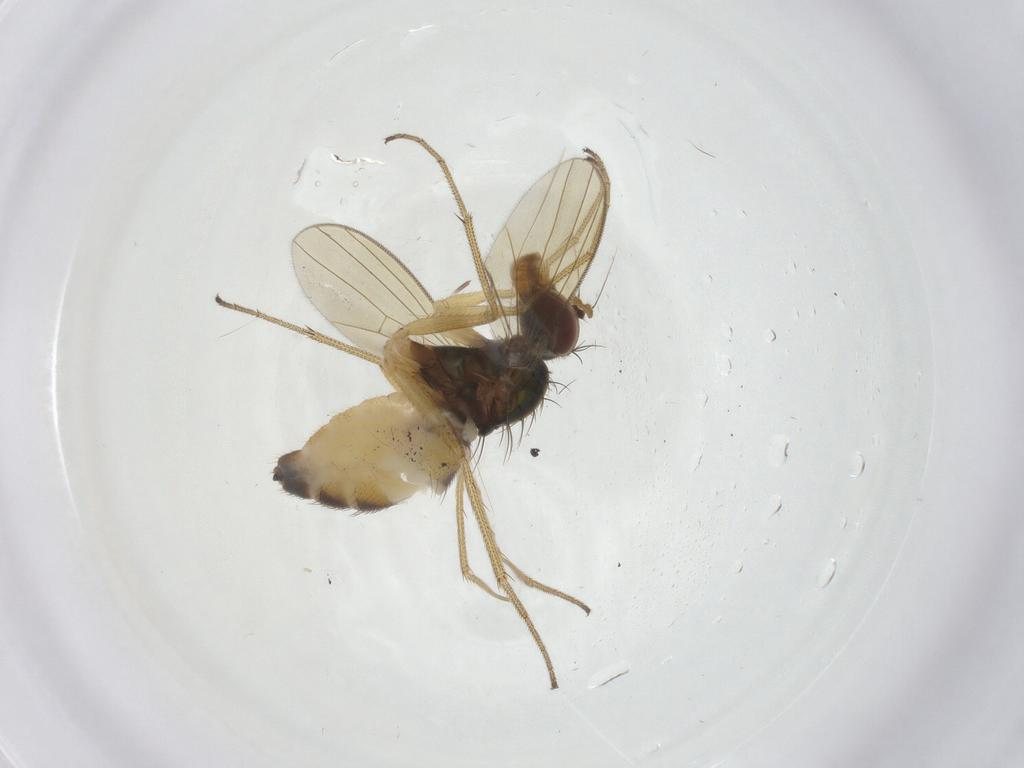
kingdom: Animalia
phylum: Arthropoda
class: Insecta
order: Diptera
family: Dolichopodidae
